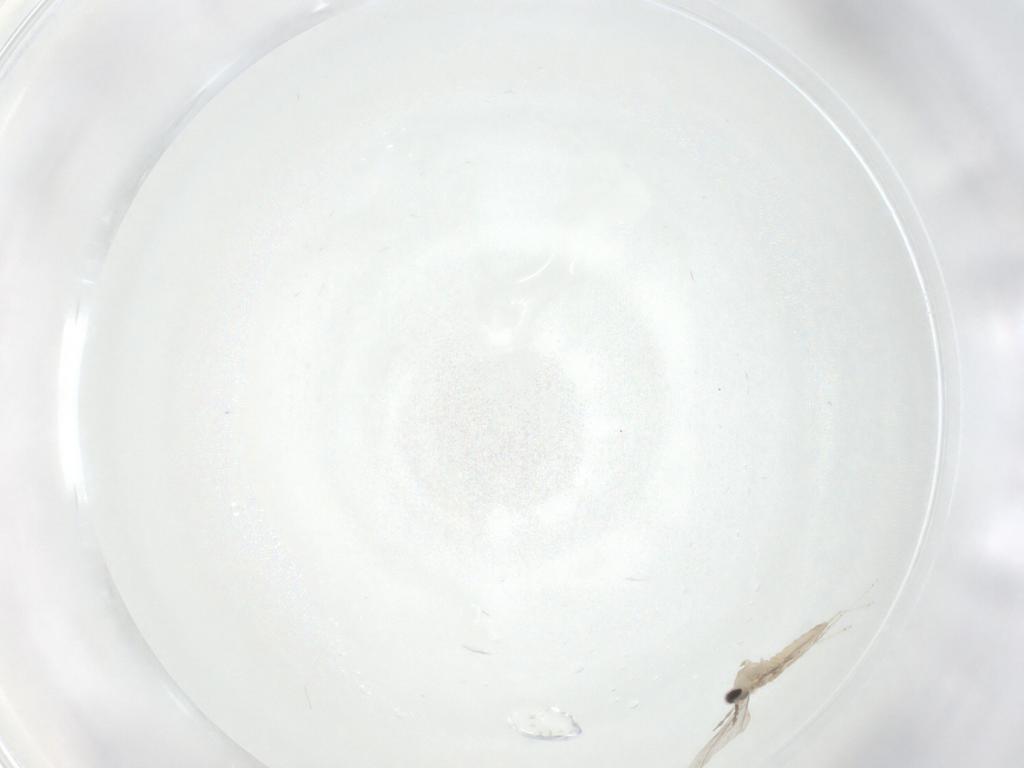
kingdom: Animalia
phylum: Arthropoda
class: Insecta
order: Diptera
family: Cecidomyiidae
